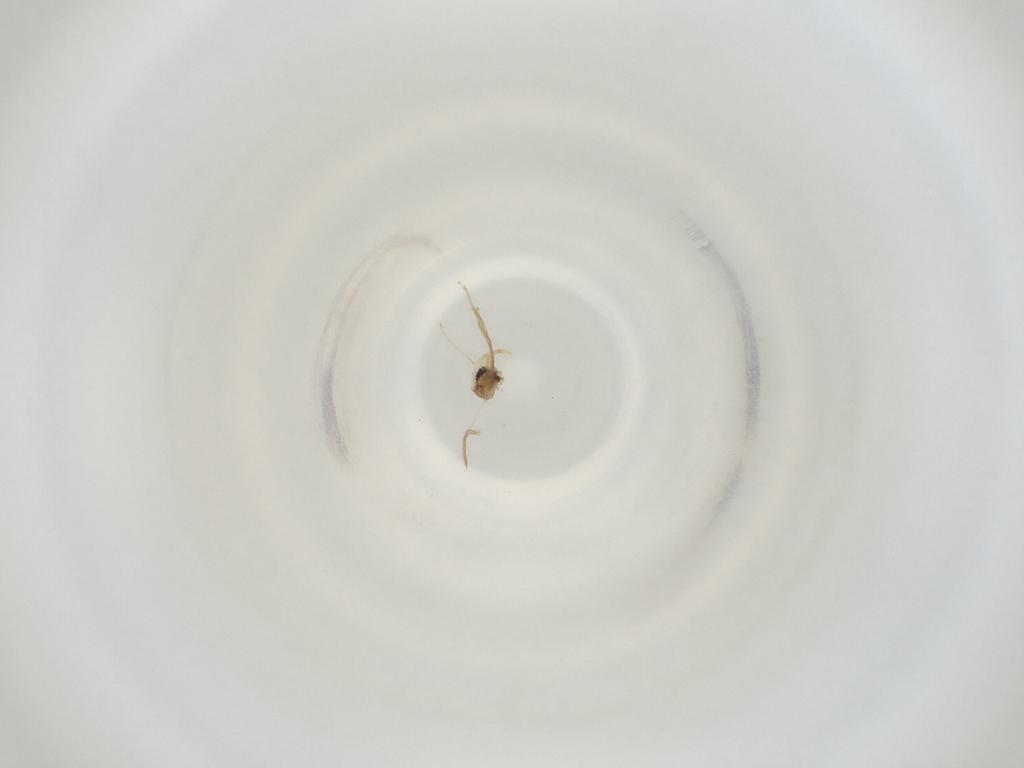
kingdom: Animalia
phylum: Arthropoda
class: Insecta
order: Diptera
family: Cecidomyiidae
